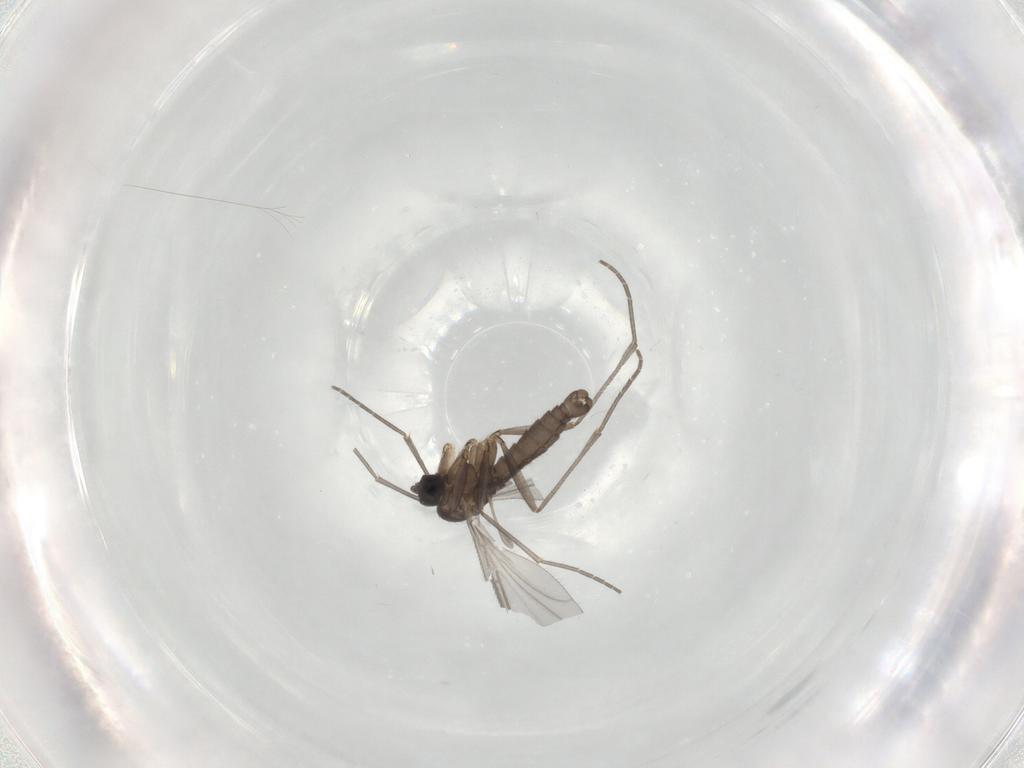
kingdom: Animalia
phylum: Arthropoda
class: Insecta
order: Diptera
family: Sciaridae
